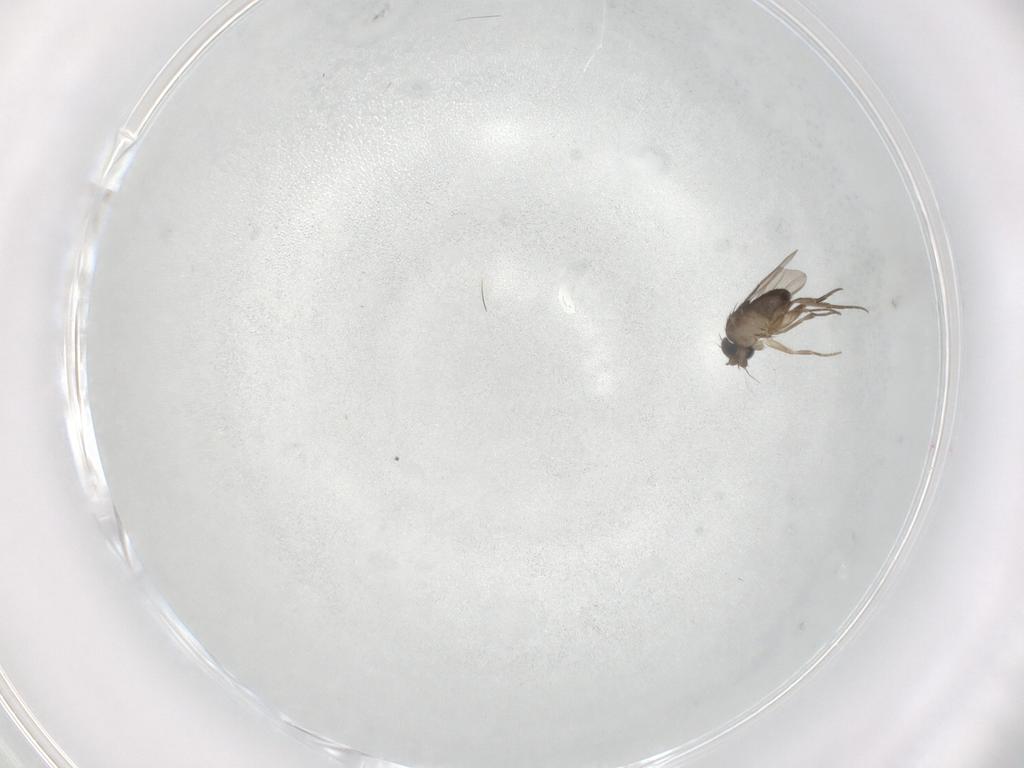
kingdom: Animalia
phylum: Arthropoda
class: Insecta
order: Diptera
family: Phoridae
